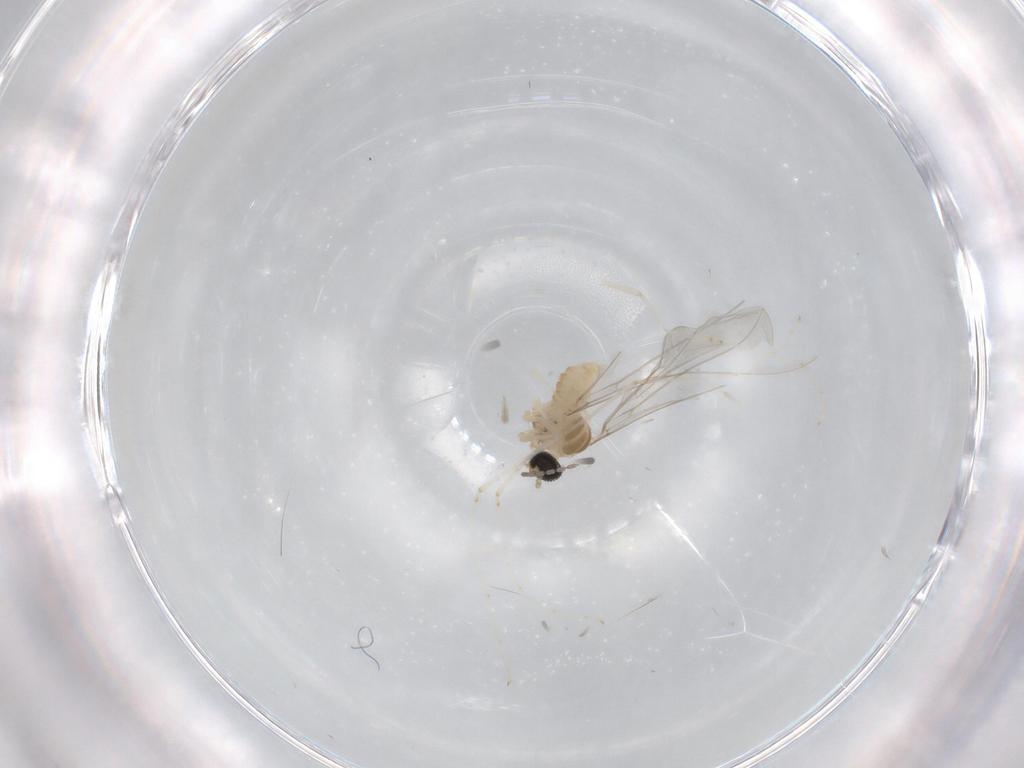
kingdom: Animalia
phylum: Arthropoda
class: Insecta
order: Diptera
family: Cecidomyiidae
